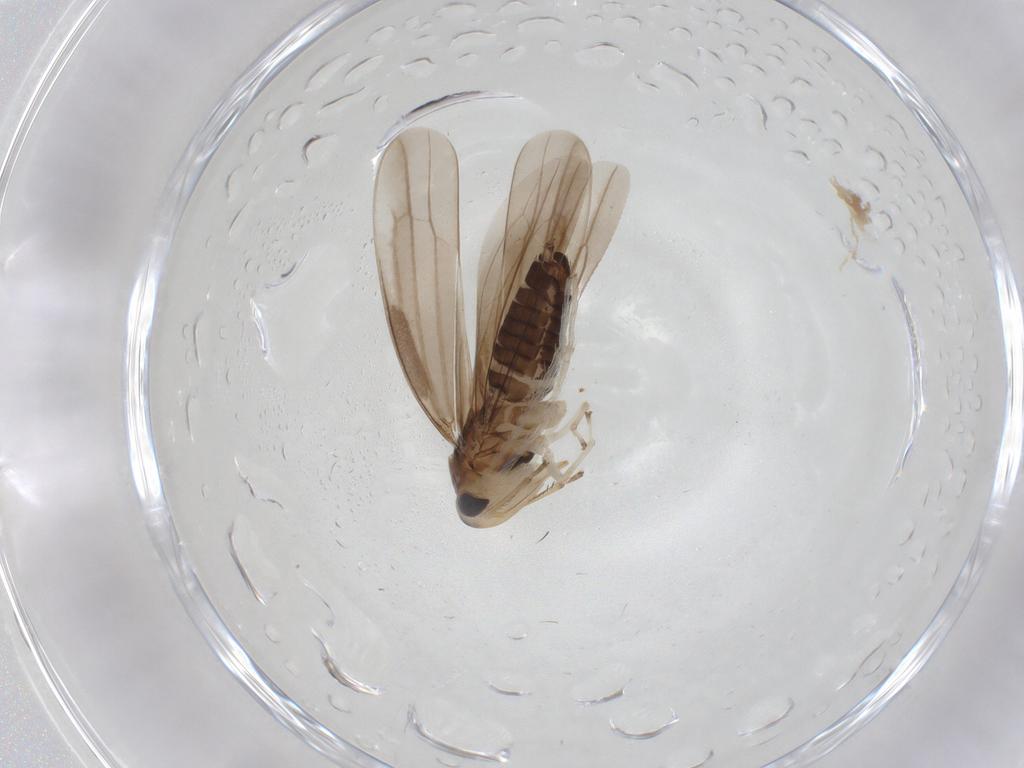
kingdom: Animalia
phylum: Arthropoda
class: Insecta
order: Hemiptera
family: Cicadellidae
